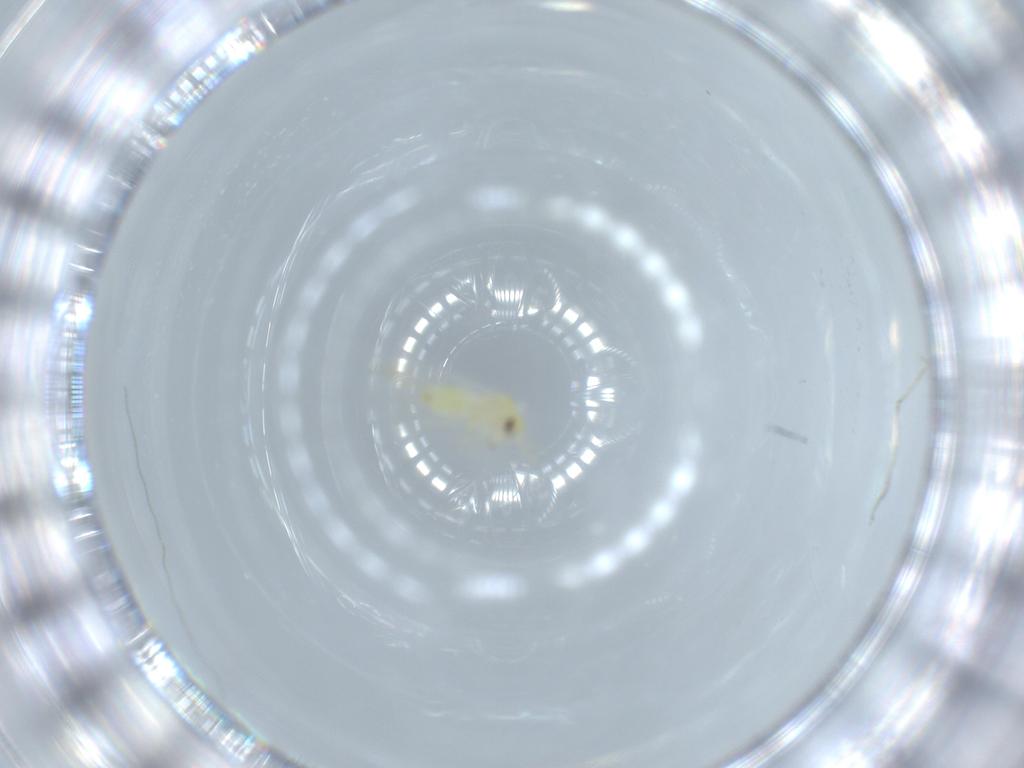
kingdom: Animalia
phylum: Arthropoda
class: Insecta
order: Hemiptera
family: Aleyrodidae
